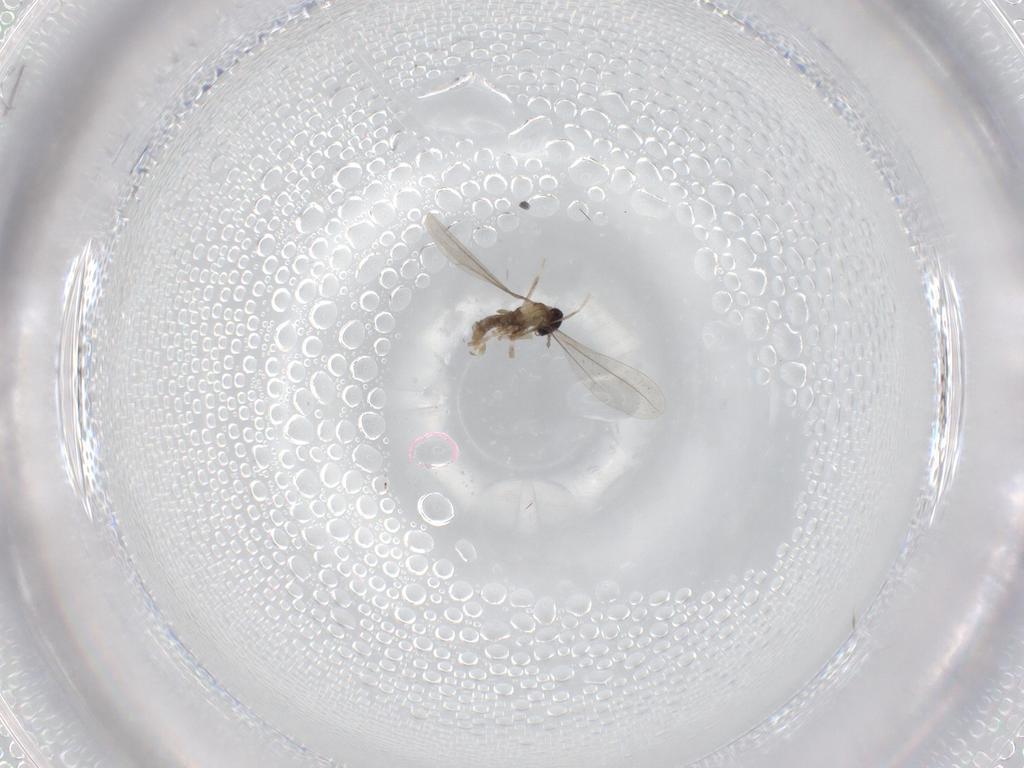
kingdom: Animalia
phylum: Arthropoda
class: Insecta
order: Diptera
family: Cecidomyiidae
